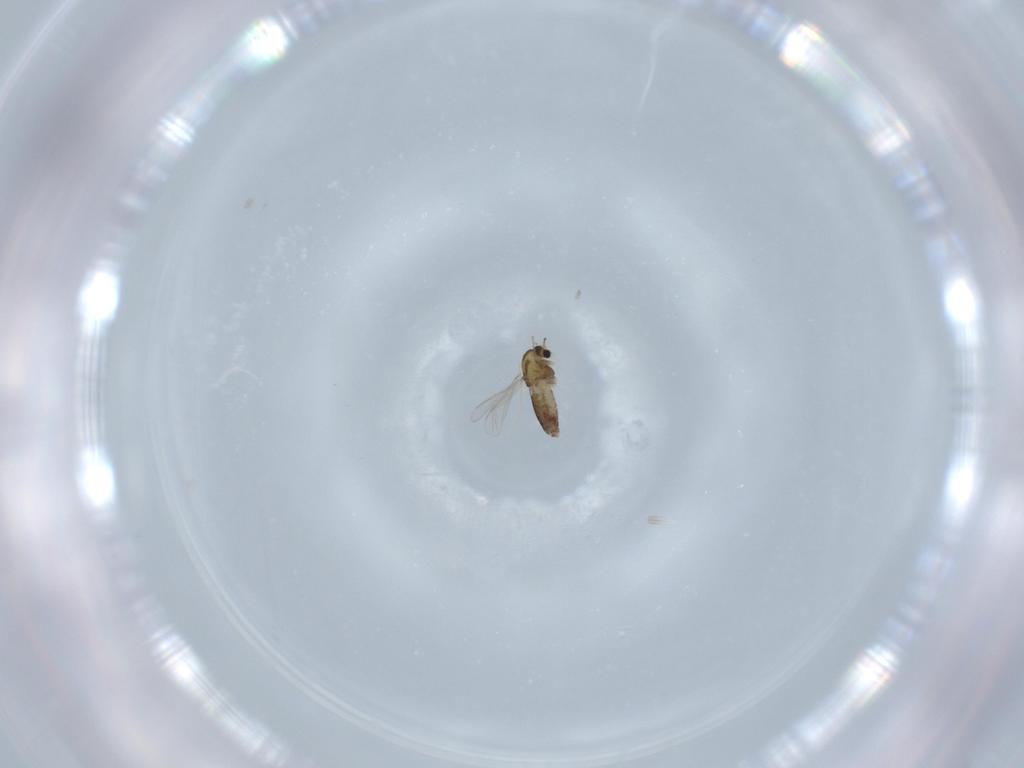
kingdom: Animalia
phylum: Arthropoda
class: Insecta
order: Diptera
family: Chironomidae
